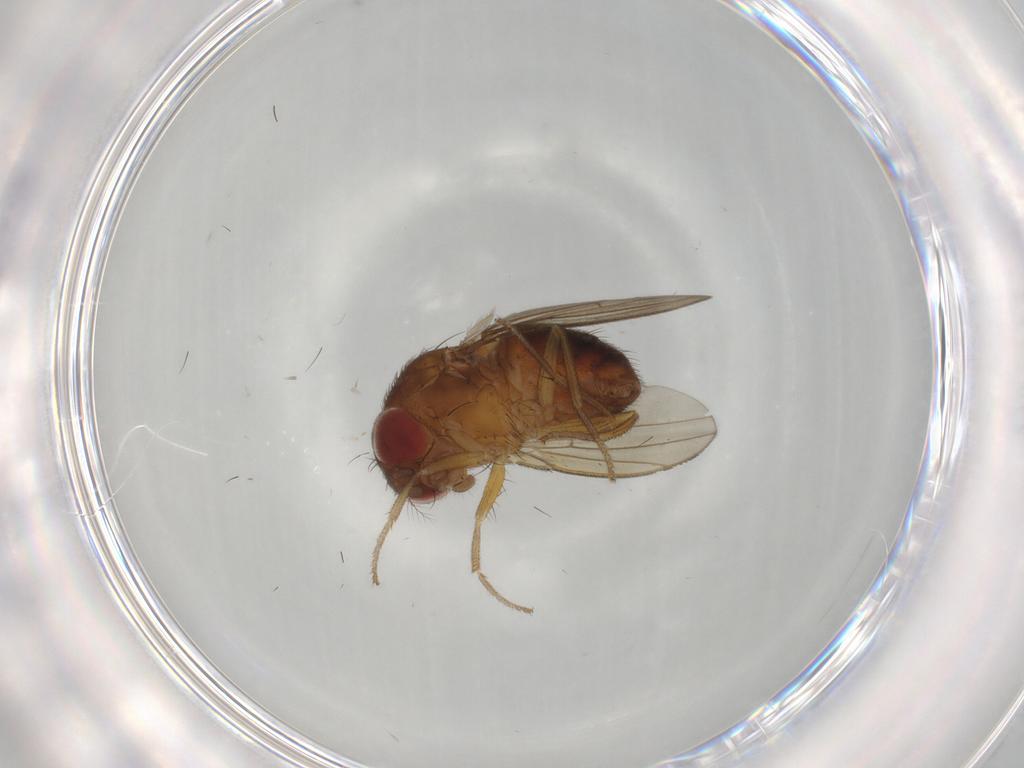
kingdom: Animalia
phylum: Arthropoda
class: Insecta
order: Diptera
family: Drosophilidae
